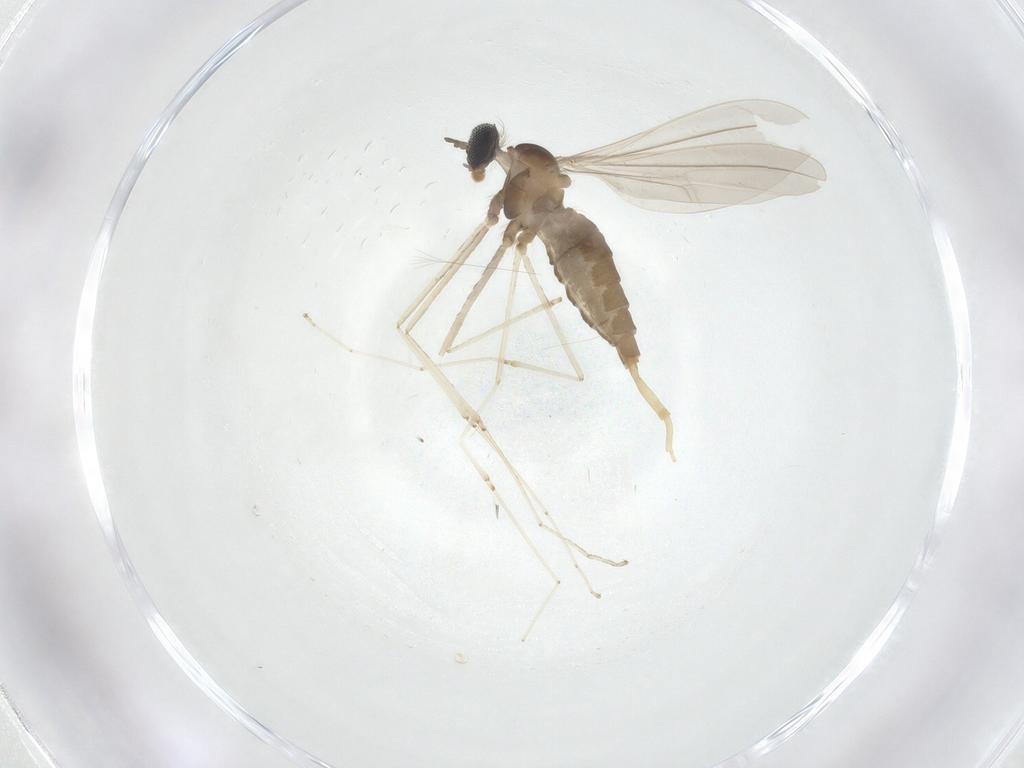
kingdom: Animalia
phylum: Arthropoda
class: Insecta
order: Diptera
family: Cecidomyiidae
